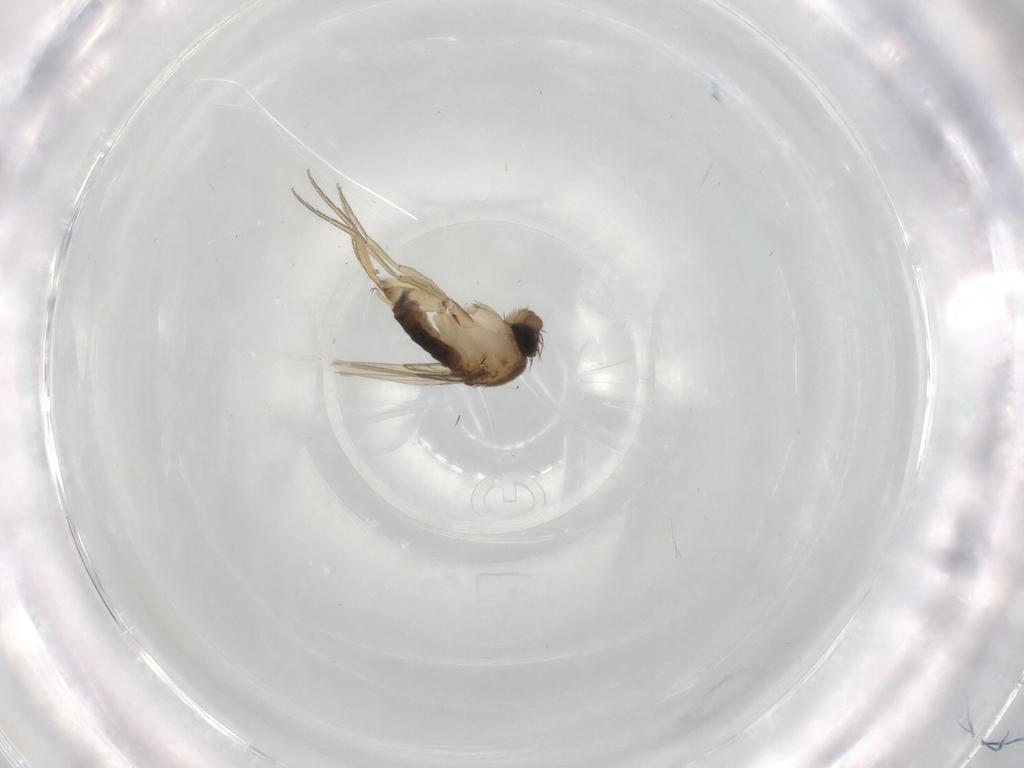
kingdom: Animalia
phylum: Arthropoda
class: Insecta
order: Diptera
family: Phoridae
